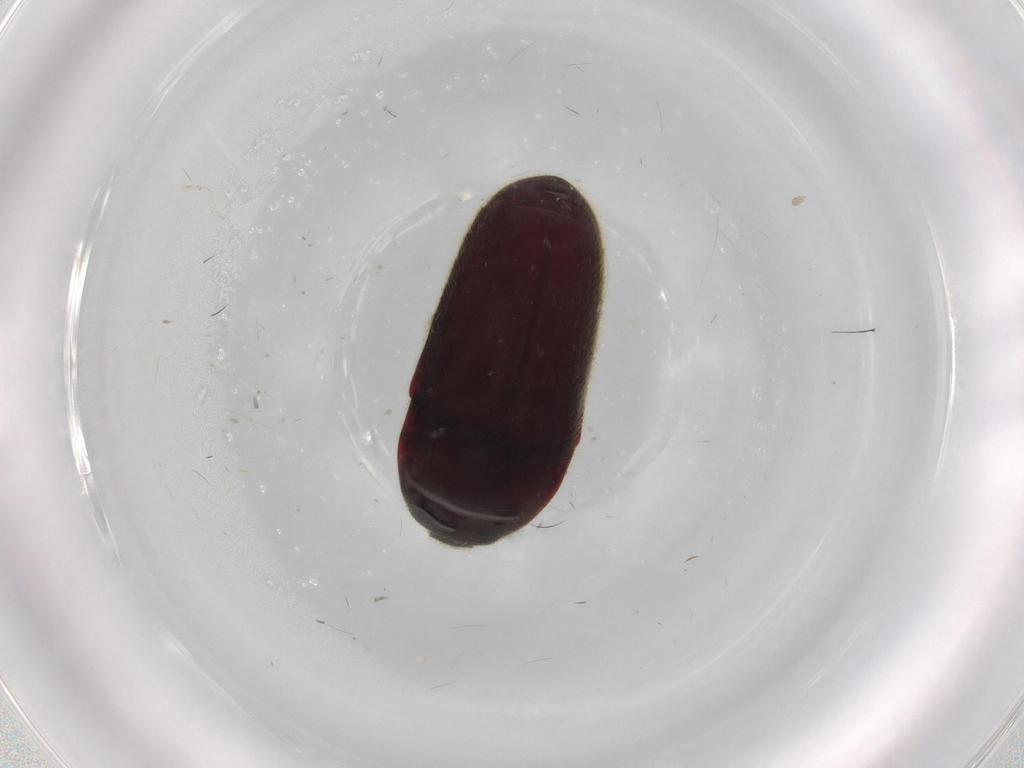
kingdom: Animalia
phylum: Arthropoda
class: Insecta
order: Coleoptera
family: Throscidae
